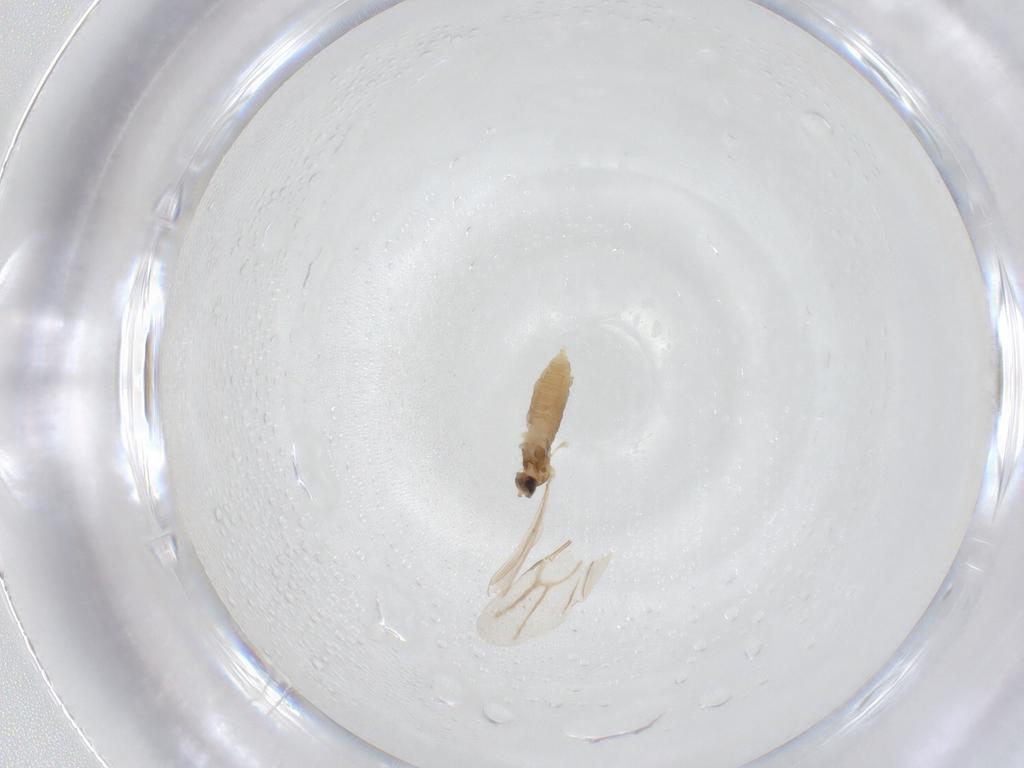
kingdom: Animalia
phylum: Arthropoda
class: Insecta
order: Diptera
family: Cecidomyiidae
